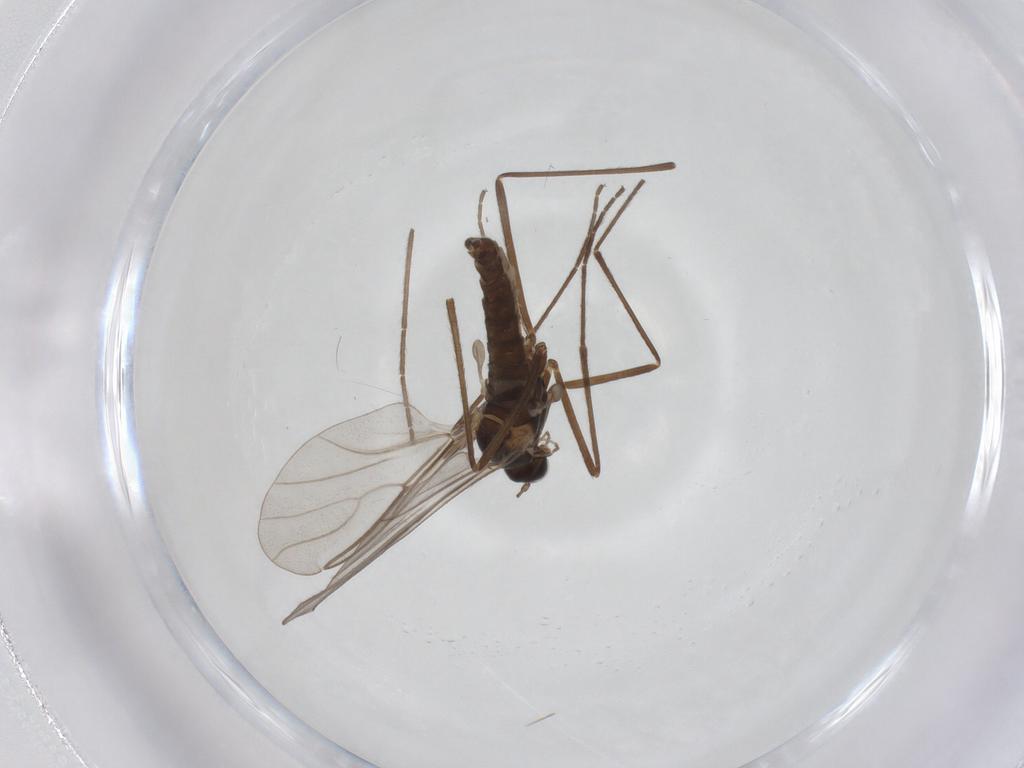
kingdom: Animalia
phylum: Arthropoda
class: Insecta
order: Diptera
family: Cecidomyiidae
